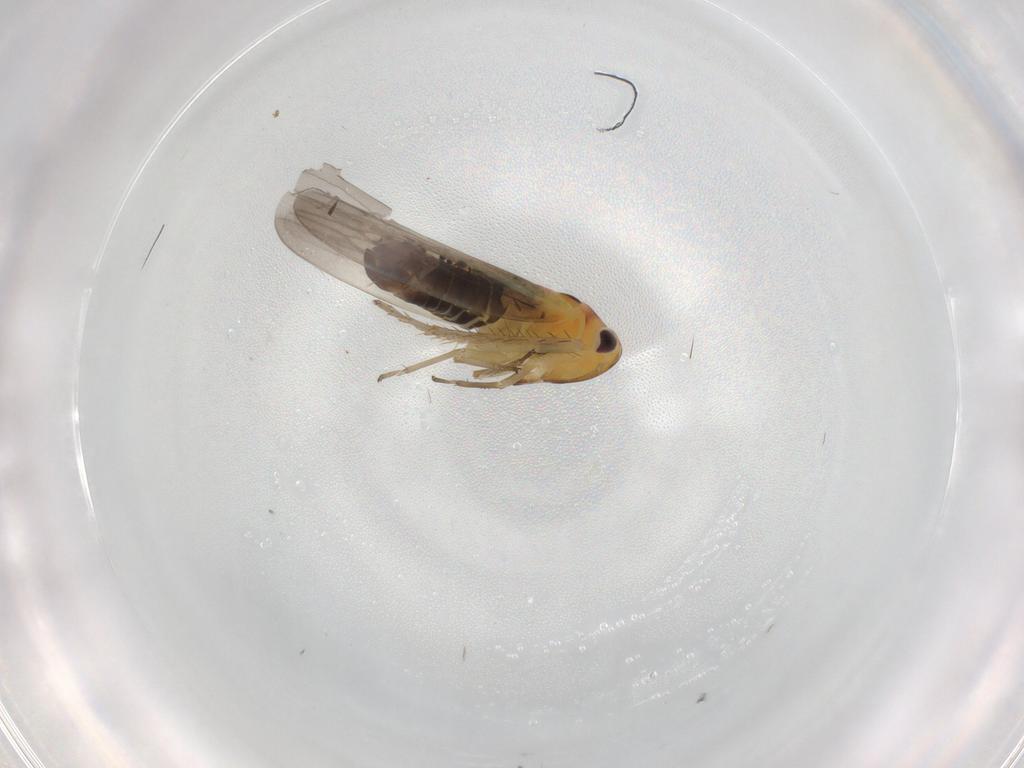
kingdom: Animalia
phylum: Arthropoda
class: Insecta
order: Hemiptera
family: Cicadellidae
